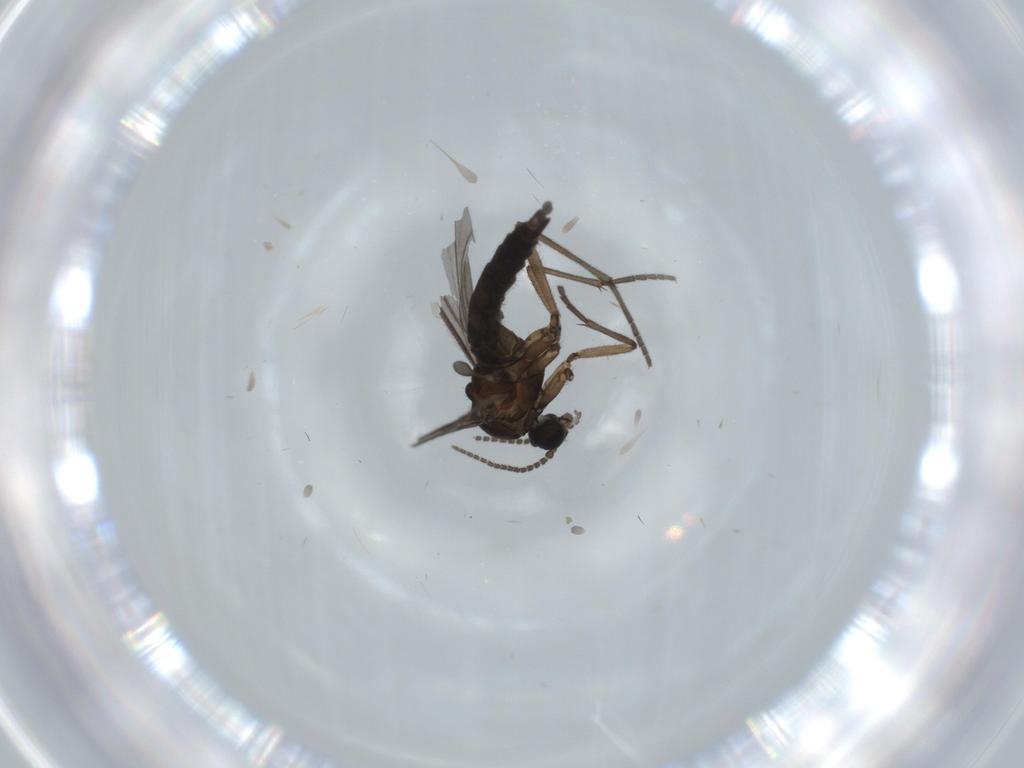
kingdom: Animalia
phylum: Arthropoda
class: Insecta
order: Diptera
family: Sciaridae
